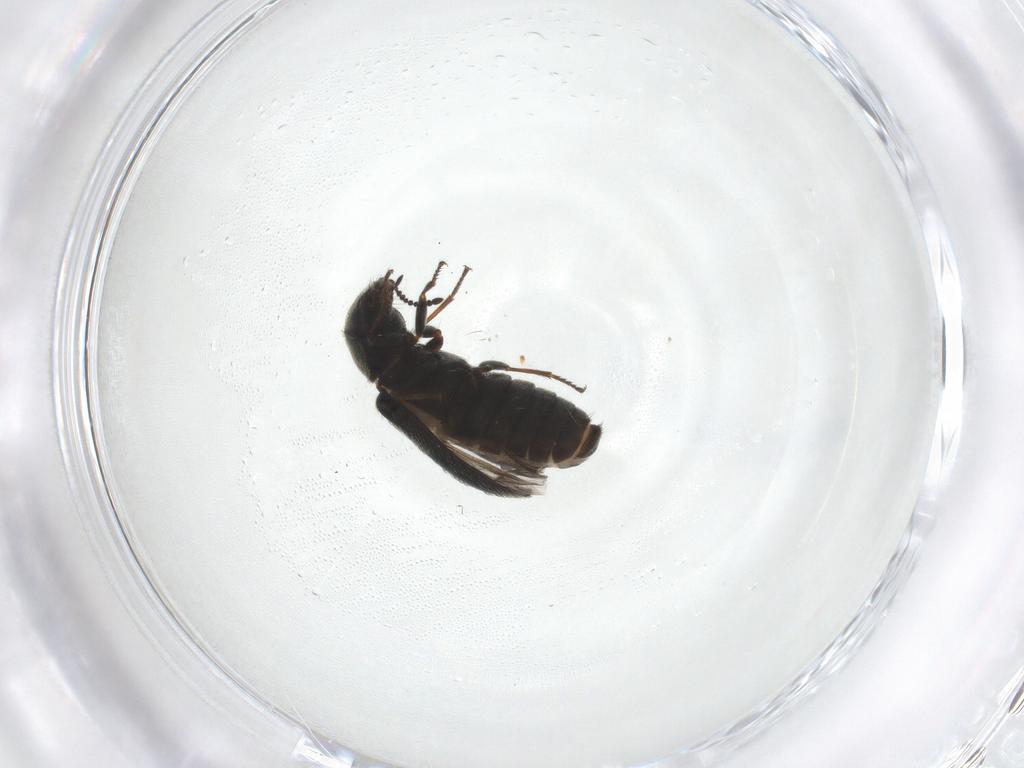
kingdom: Animalia
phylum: Arthropoda
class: Insecta
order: Coleoptera
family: Melyridae
